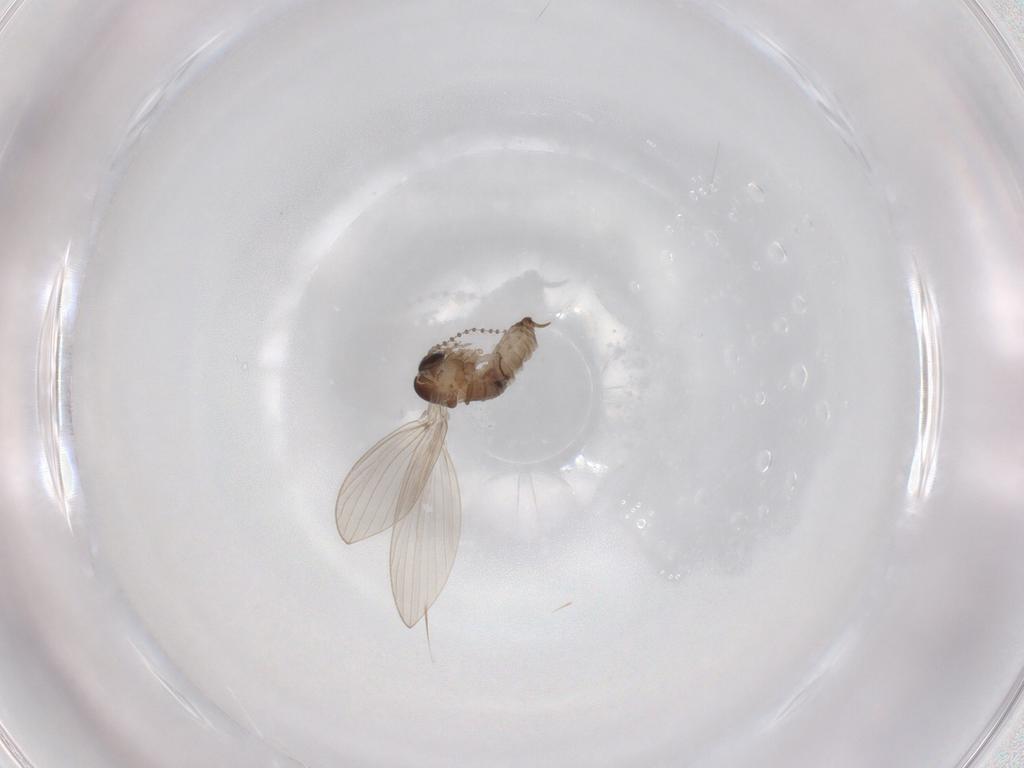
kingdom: Animalia
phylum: Arthropoda
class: Insecta
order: Diptera
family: Psychodidae
